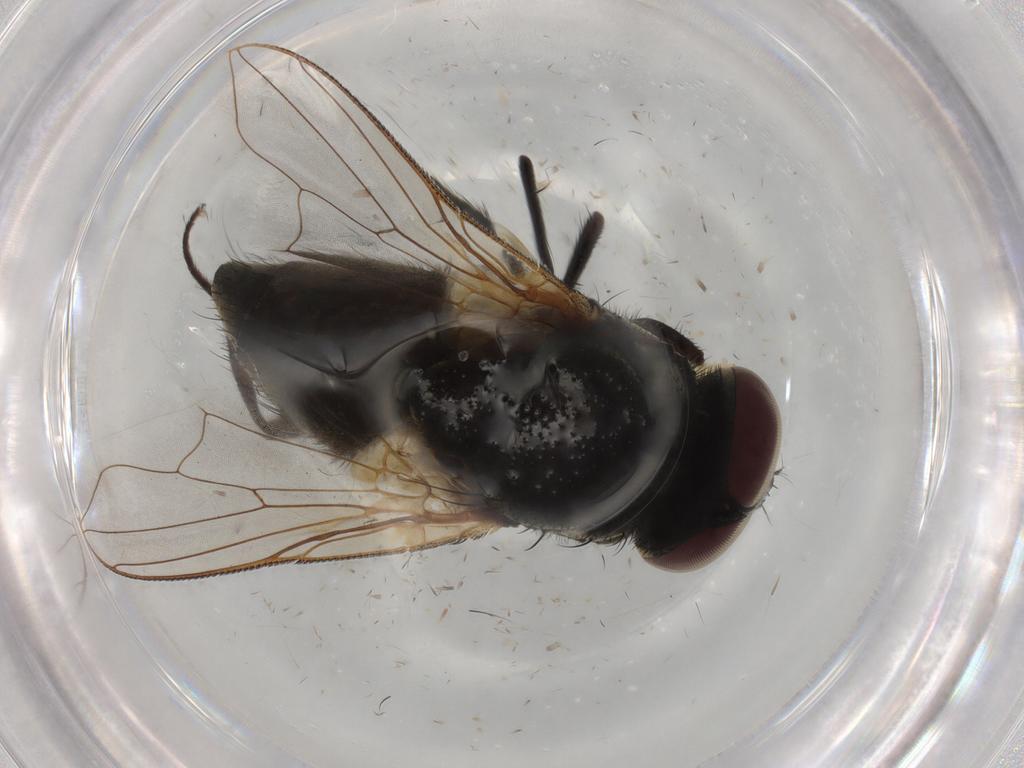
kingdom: Animalia
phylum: Arthropoda
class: Insecta
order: Diptera
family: Muscidae
